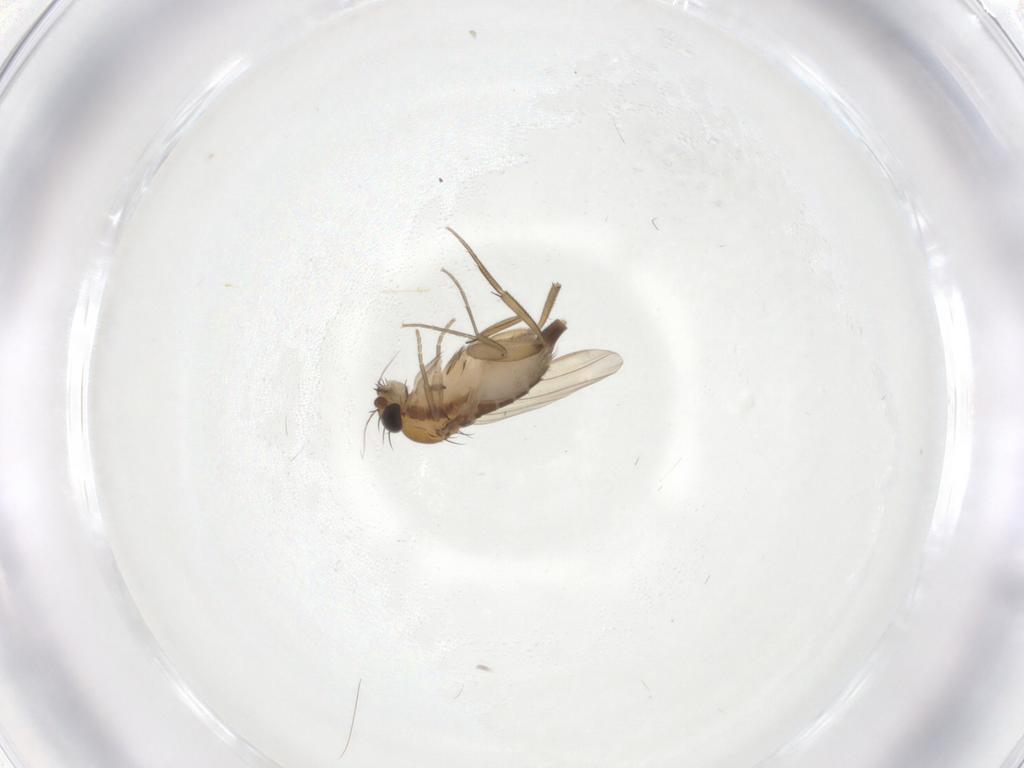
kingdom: Animalia
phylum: Arthropoda
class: Insecta
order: Diptera
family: Phoridae
